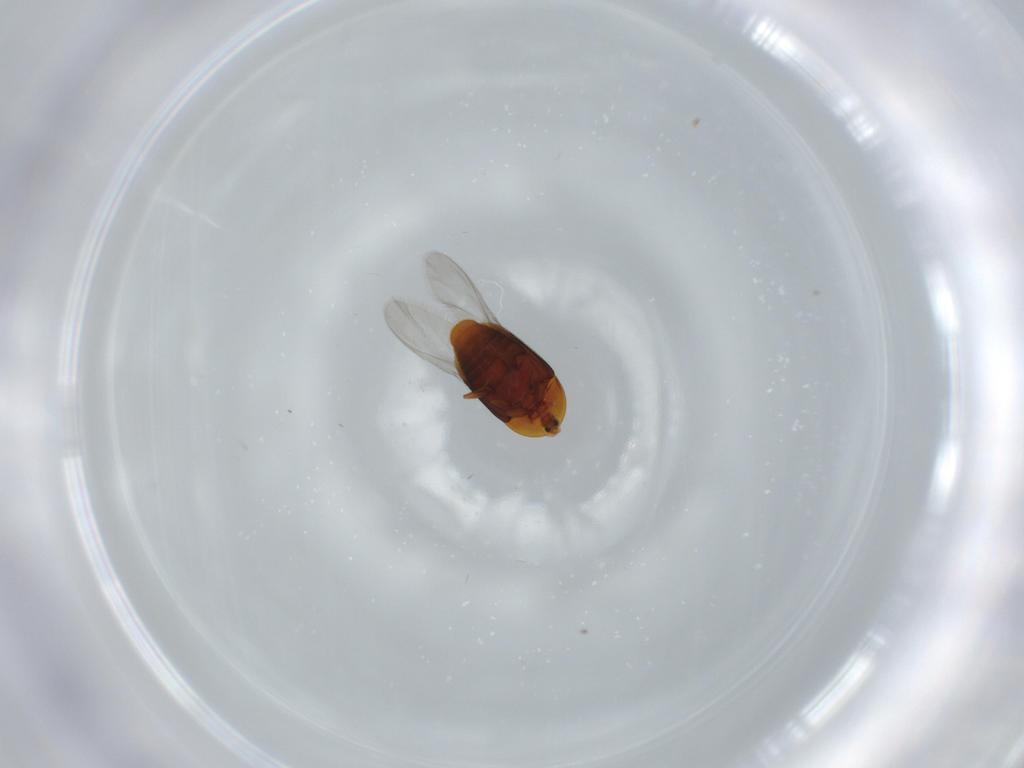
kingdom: Animalia
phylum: Arthropoda
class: Insecta
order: Coleoptera
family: Corylophidae
